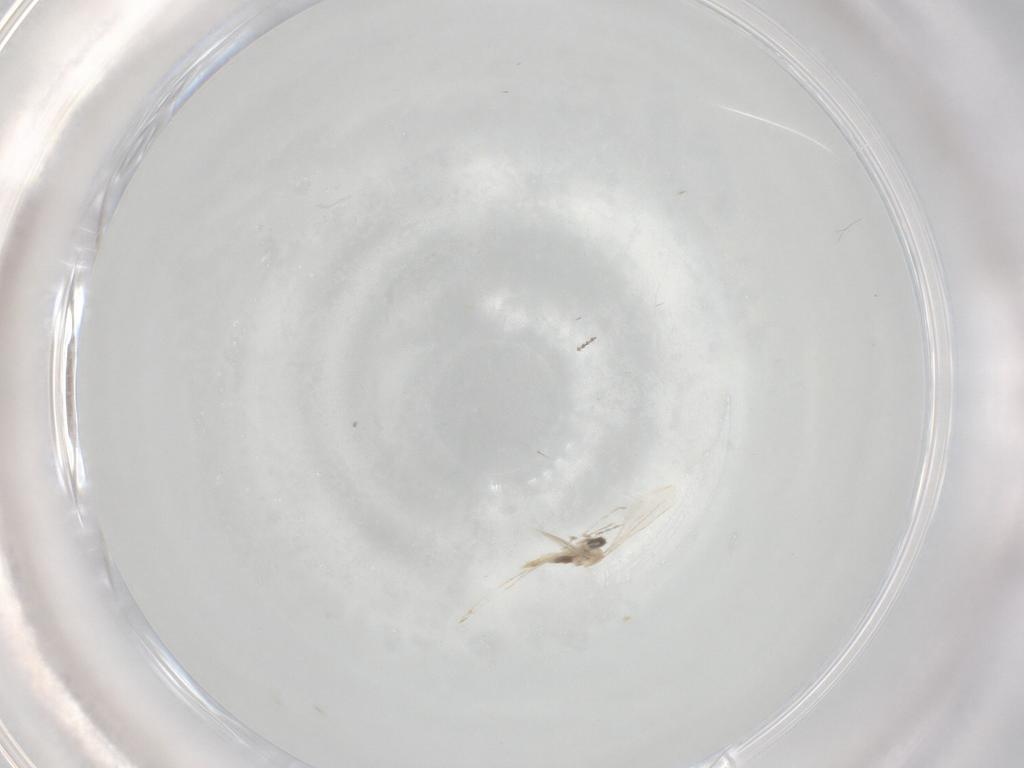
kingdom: Animalia
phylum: Arthropoda
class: Insecta
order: Diptera
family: Cecidomyiidae
